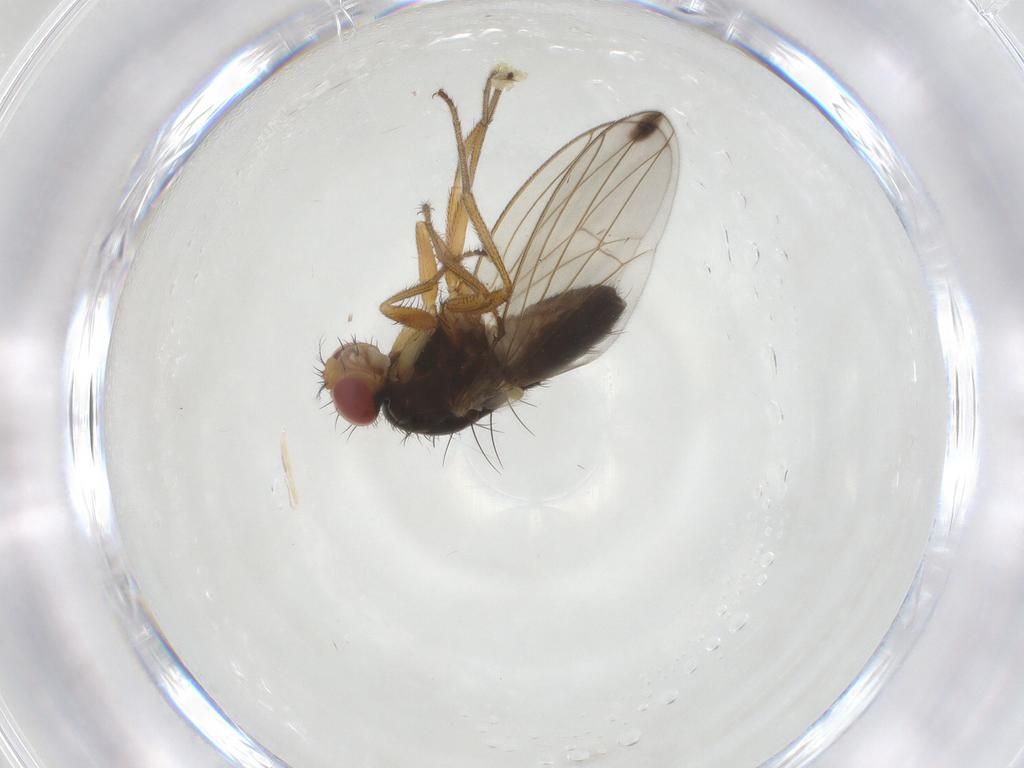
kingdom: Animalia
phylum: Arthropoda
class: Insecta
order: Diptera
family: Drosophilidae
